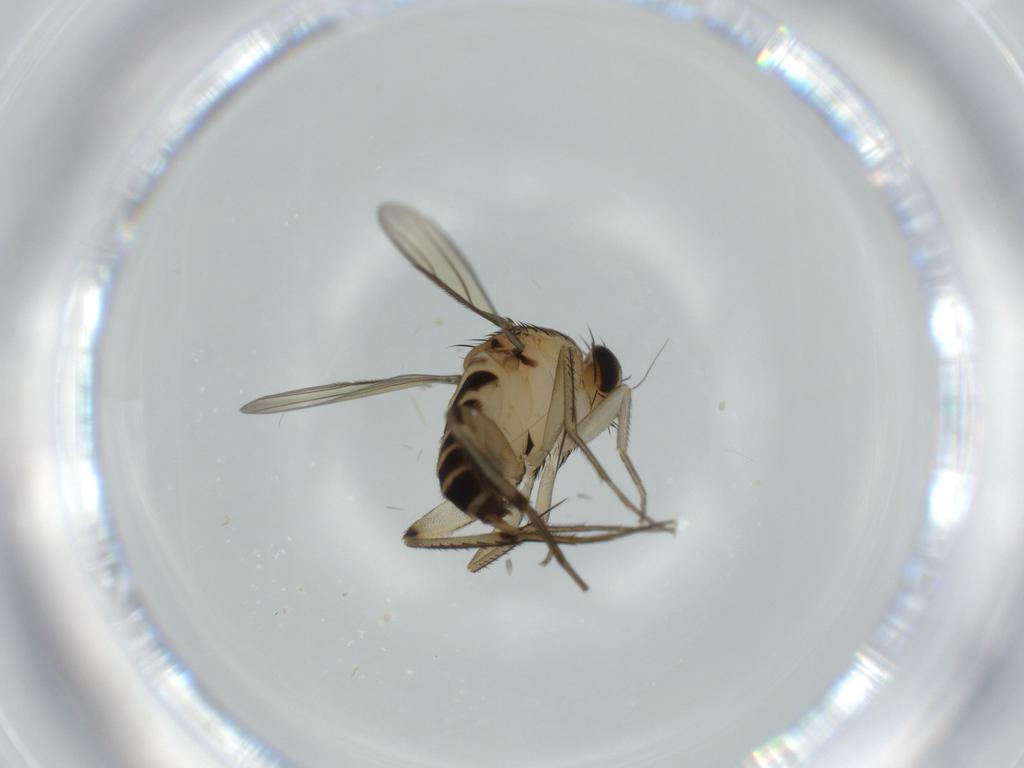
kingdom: Animalia
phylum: Arthropoda
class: Insecta
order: Diptera
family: Phoridae
